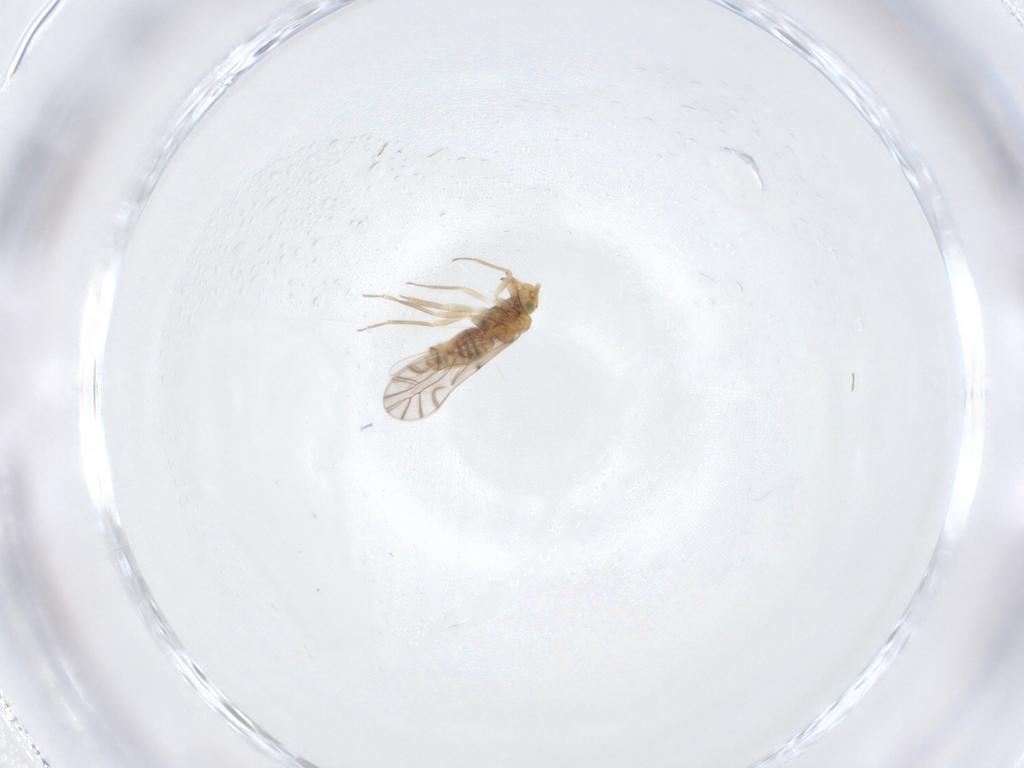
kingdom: Animalia
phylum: Arthropoda
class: Insecta
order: Psocodea
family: Lachesillidae
